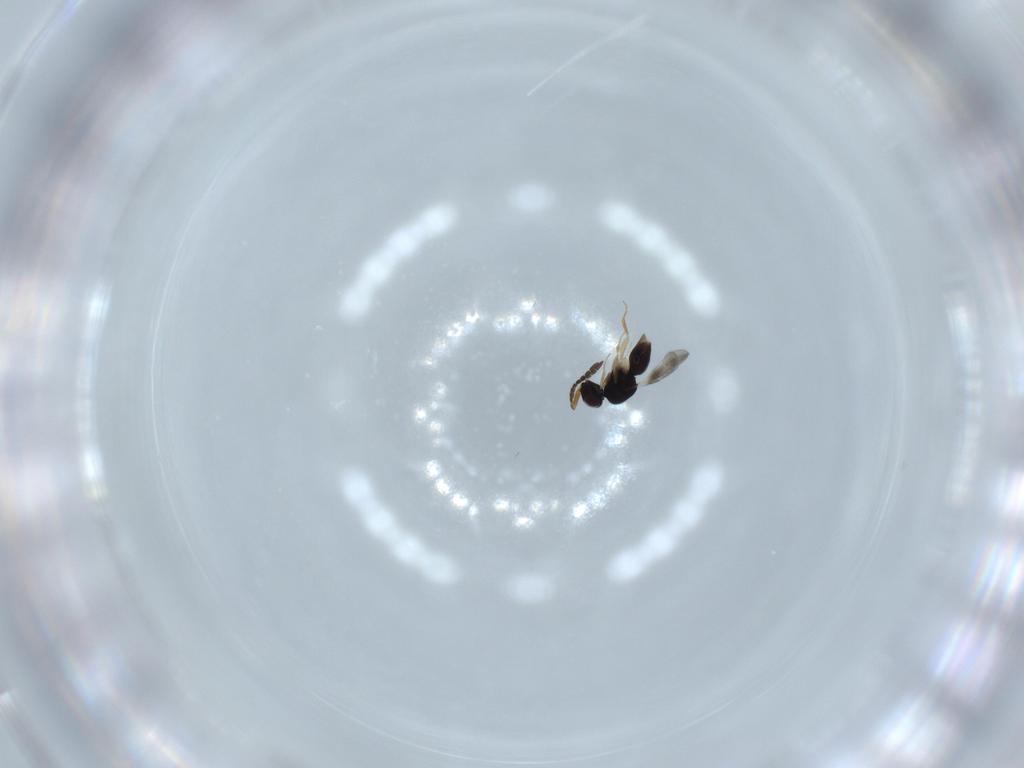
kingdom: Animalia
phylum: Arthropoda
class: Insecta
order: Hymenoptera
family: Ceraphronidae
